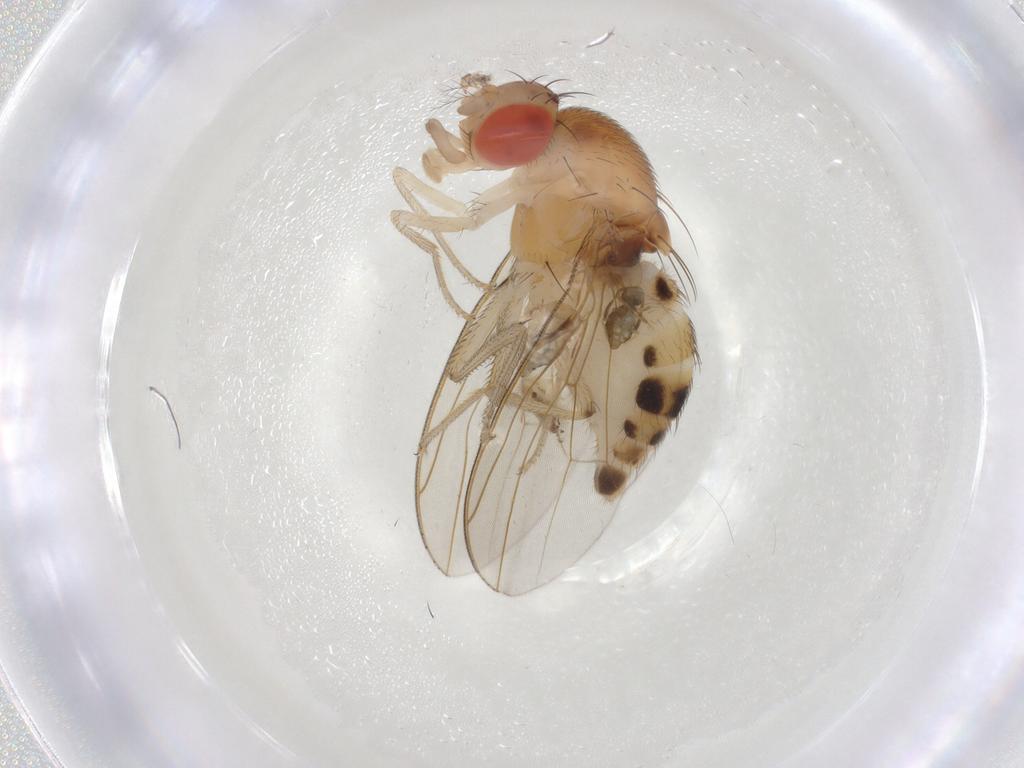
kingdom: Animalia
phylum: Arthropoda
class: Insecta
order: Diptera
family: Drosophilidae
